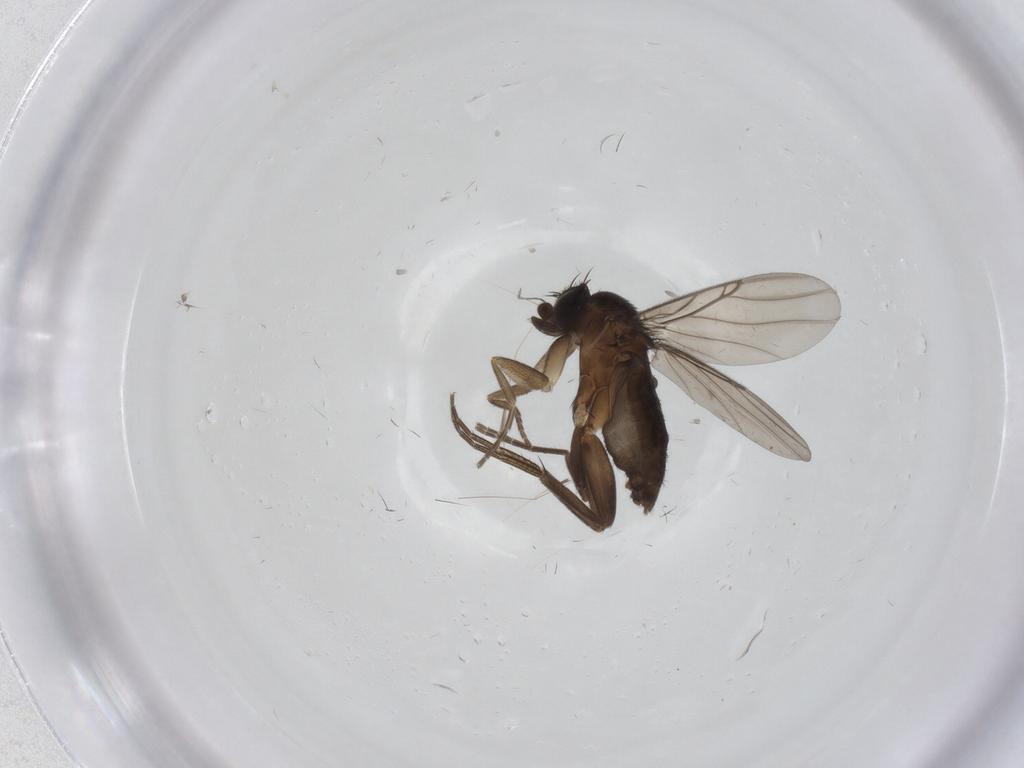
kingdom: Animalia
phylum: Arthropoda
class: Insecta
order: Diptera
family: Phoridae
